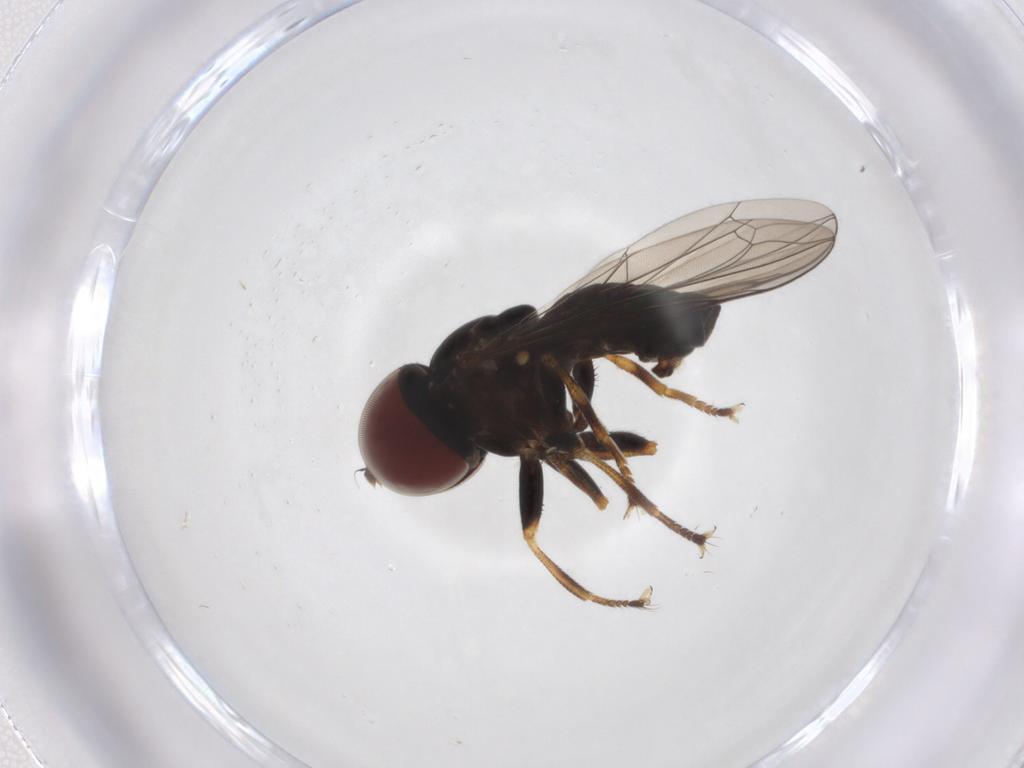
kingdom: Animalia
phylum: Arthropoda
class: Insecta
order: Diptera
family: Pipunculidae
